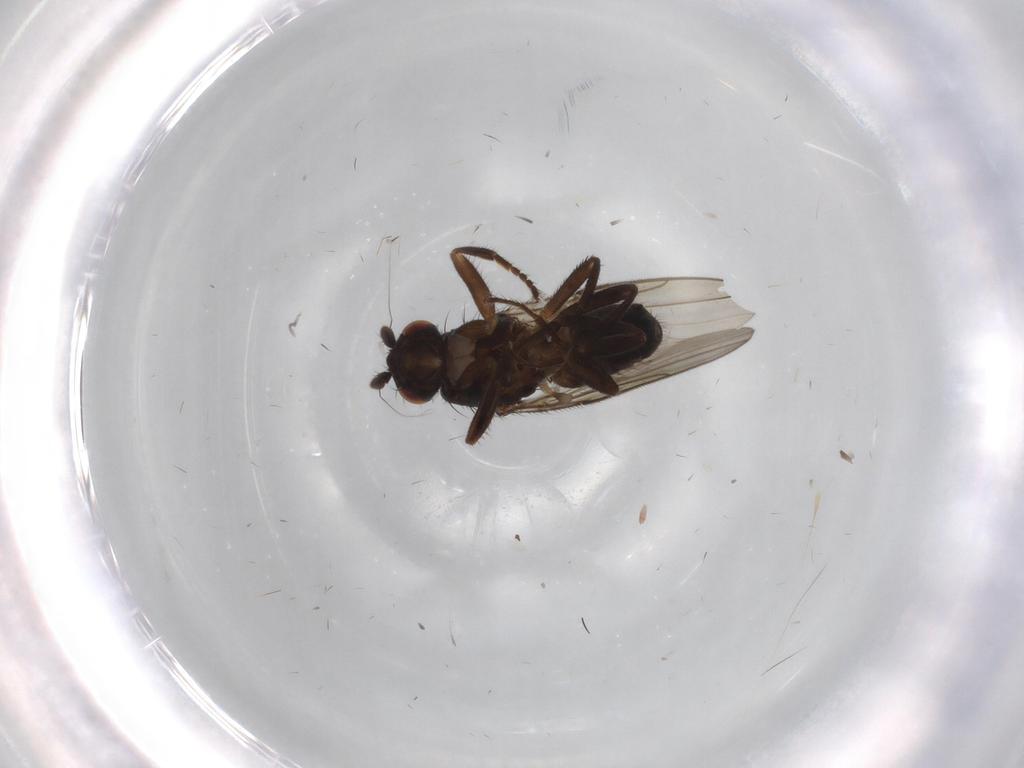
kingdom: Animalia
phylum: Arthropoda
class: Insecta
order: Diptera
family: Sphaeroceridae
